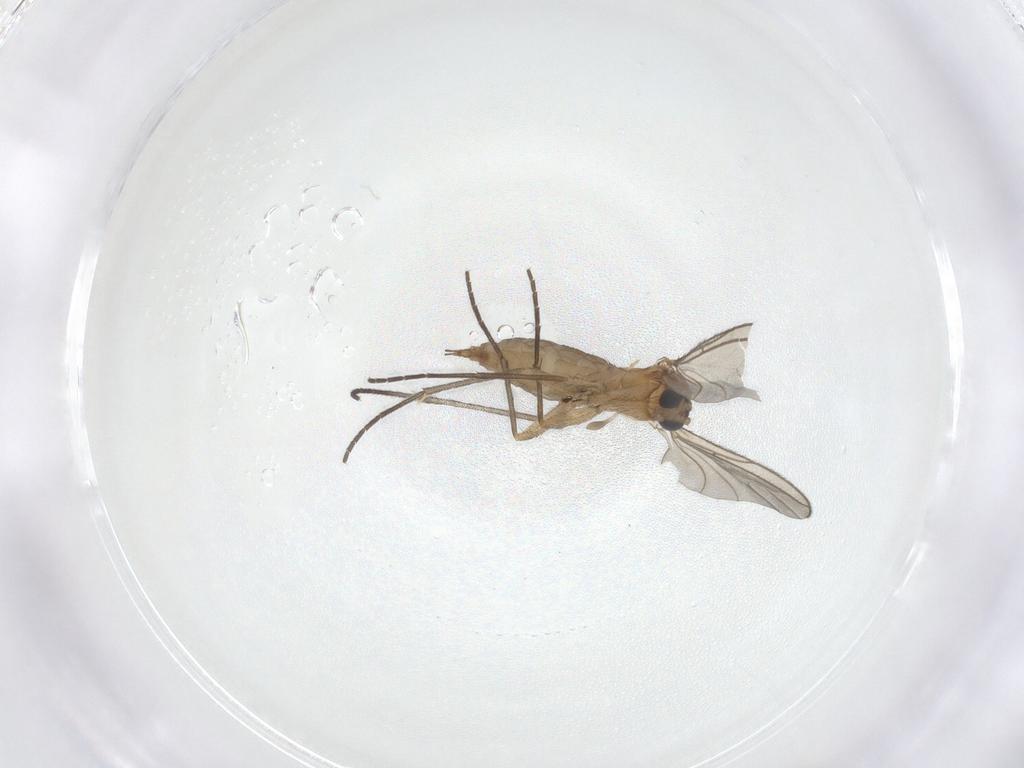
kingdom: Animalia
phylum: Arthropoda
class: Insecta
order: Diptera
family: Sciaridae
